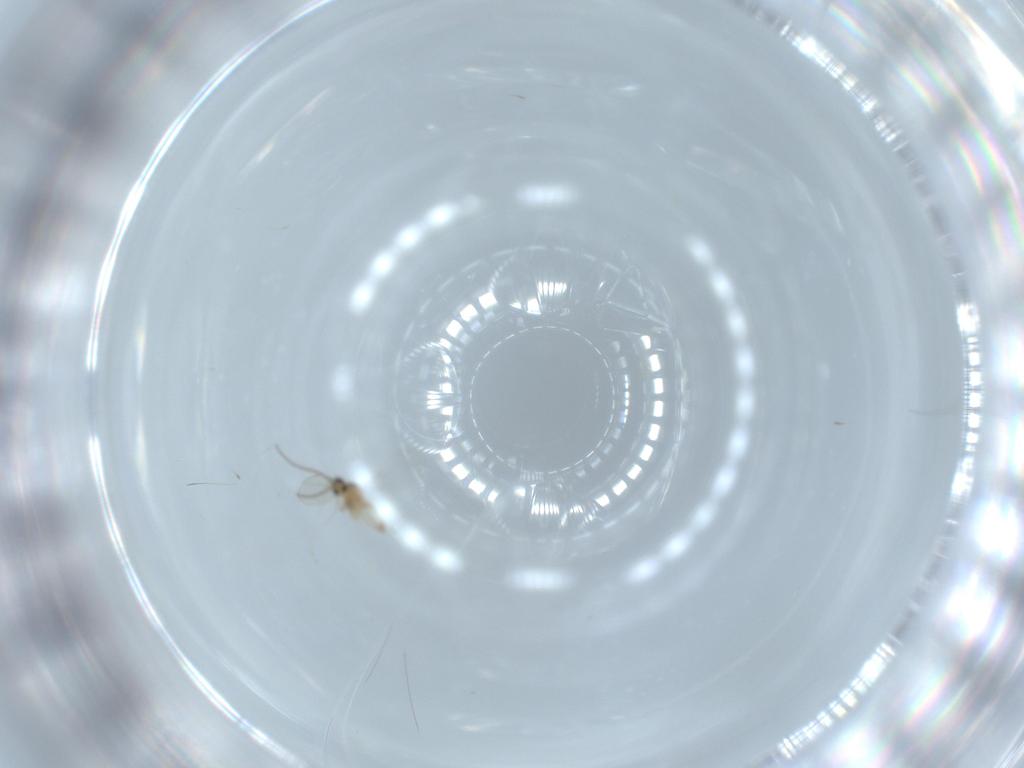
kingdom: Animalia
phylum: Arthropoda
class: Insecta
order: Diptera
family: Cecidomyiidae
